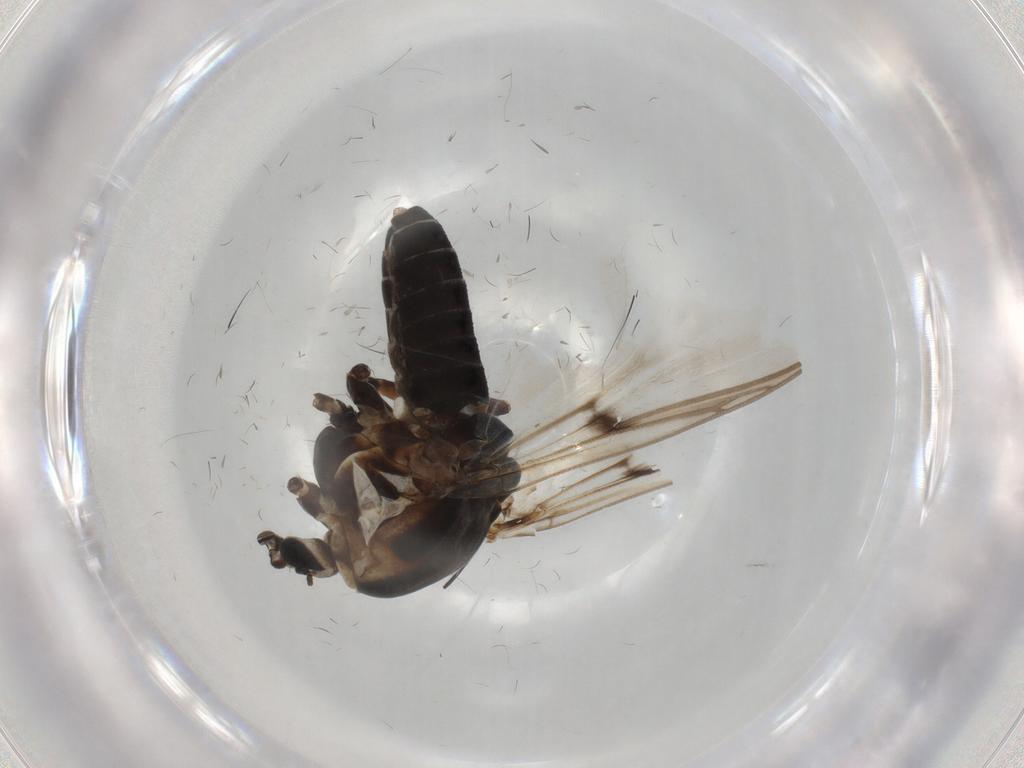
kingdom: Animalia
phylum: Arthropoda
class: Insecta
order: Diptera
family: Chironomidae
